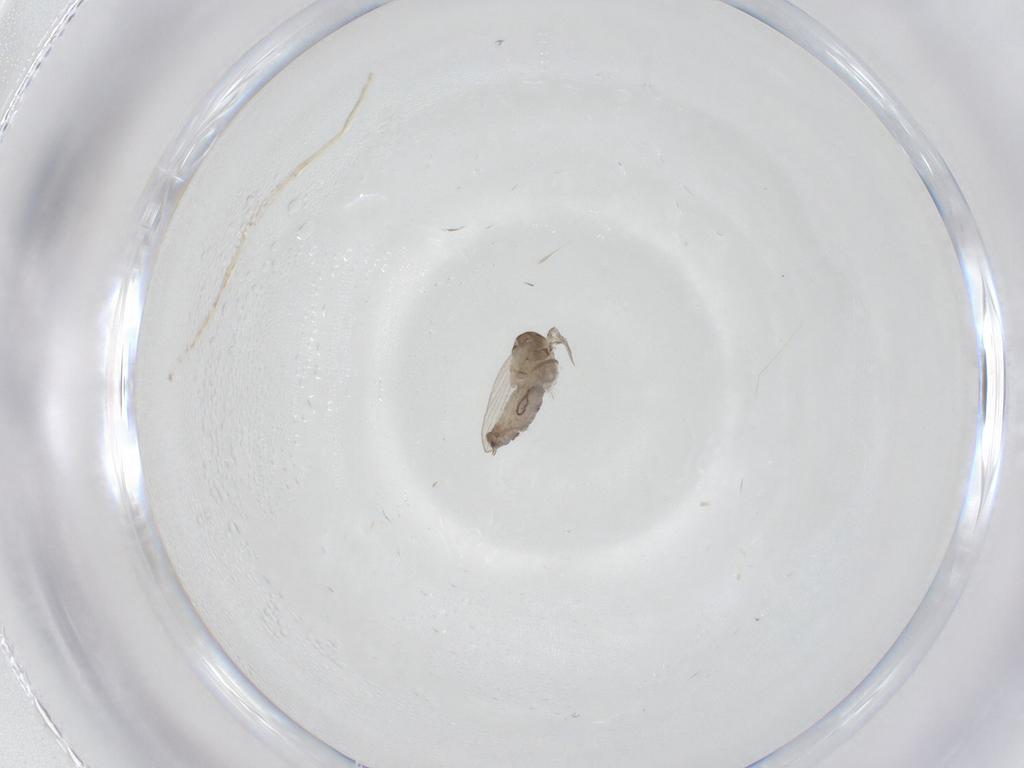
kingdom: Animalia
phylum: Arthropoda
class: Insecta
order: Diptera
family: Psychodidae
